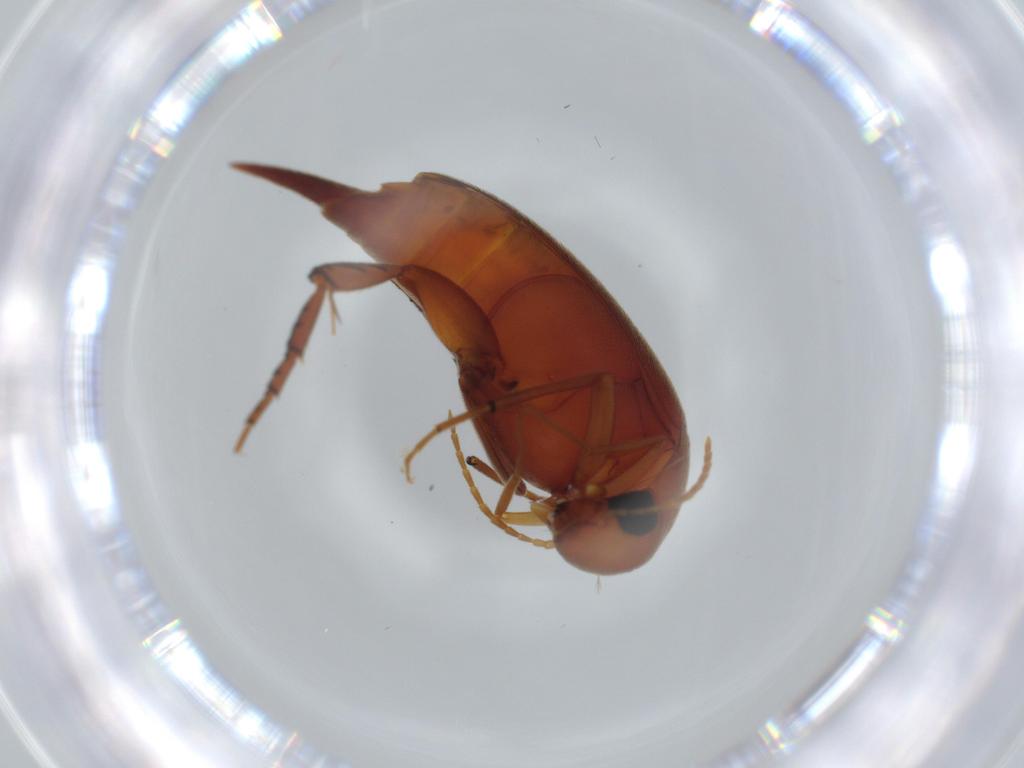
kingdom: Animalia
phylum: Arthropoda
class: Insecta
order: Coleoptera
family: Mordellidae
